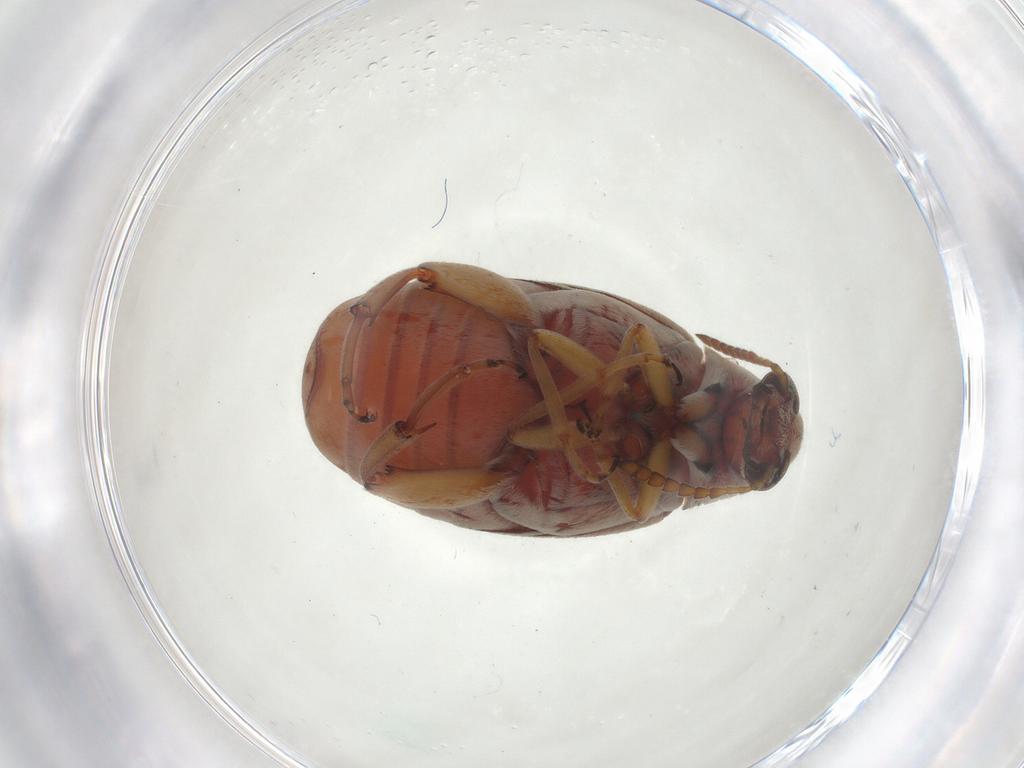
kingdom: Animalia
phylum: Arthropoda
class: Insecta
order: Coleoptera
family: Chrysomelidae
